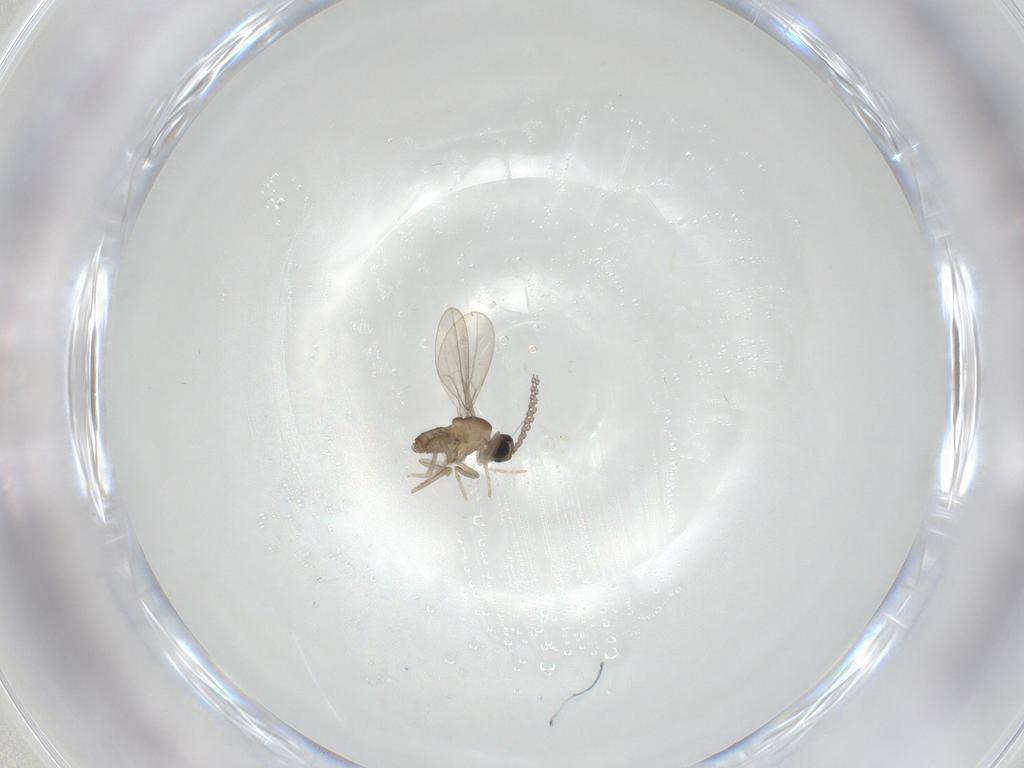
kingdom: Animalia
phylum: Arthropoda
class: Insecta
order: Diptera
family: Cecidomyiidae
